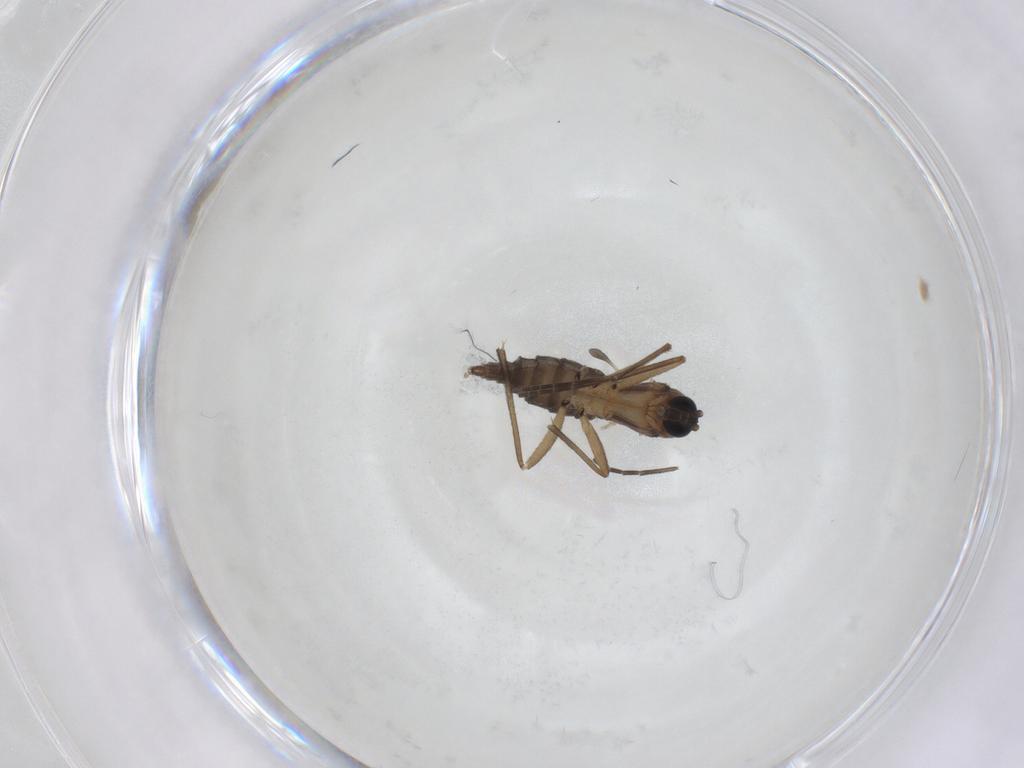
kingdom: Animalia
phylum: Arthropoda
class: Insecta
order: Diptera
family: Sciaridae
